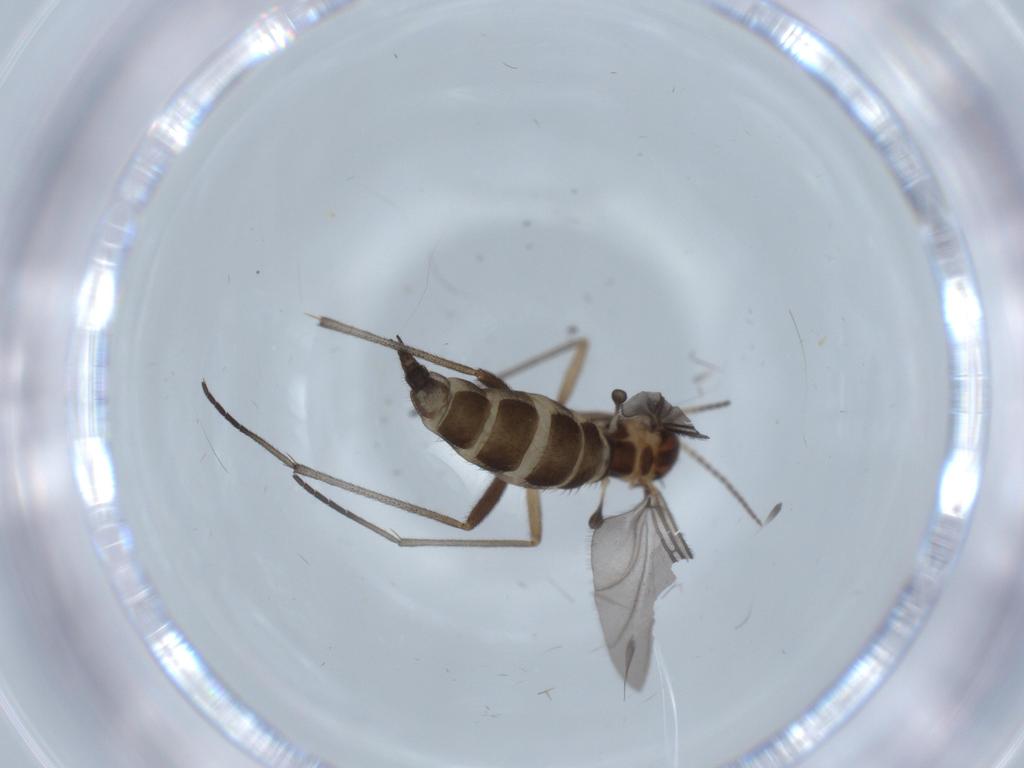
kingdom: Animalia
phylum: Arthropoda
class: Insecta
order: Diptera
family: Sciaridae
